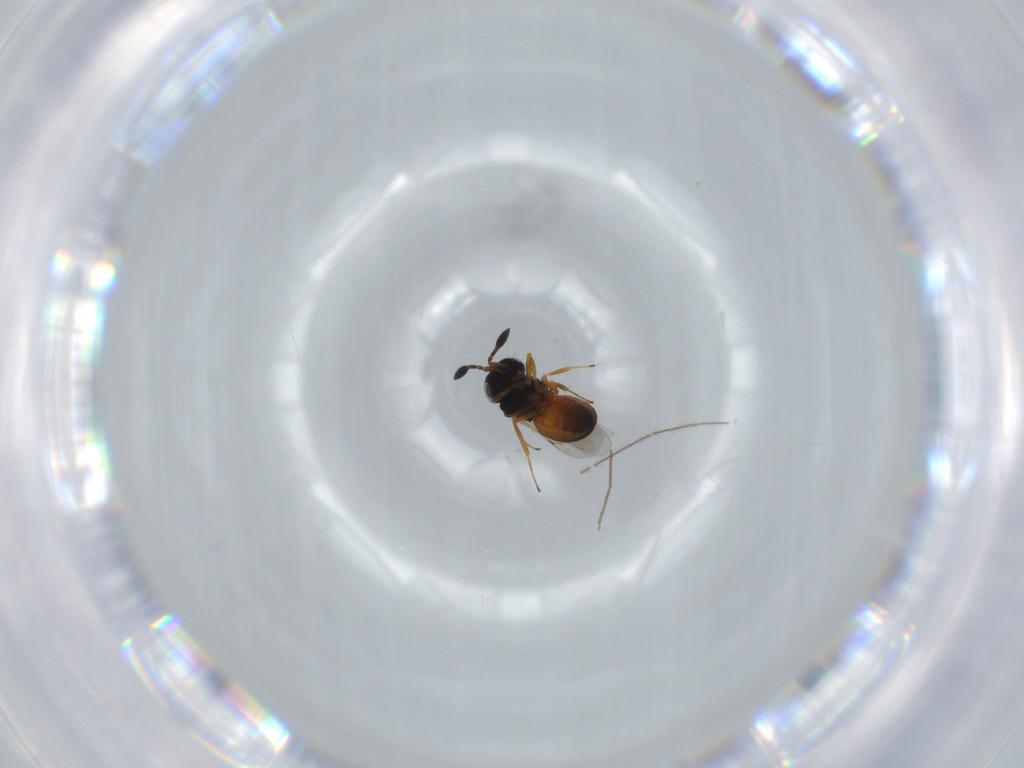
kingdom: Animalia
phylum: Arthropoda
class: Insecta
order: Hymenoptera
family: Scelionidae
